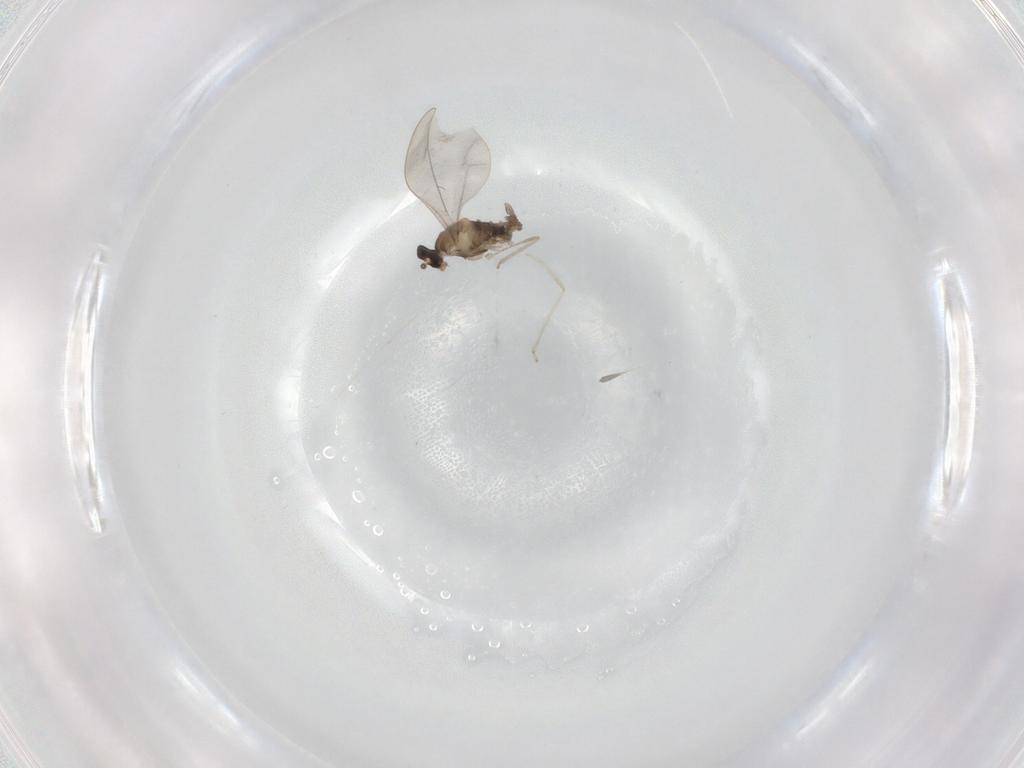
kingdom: Animalia
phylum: Arthropoda
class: Insecta
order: Diptera
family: Cecidomyiidae
